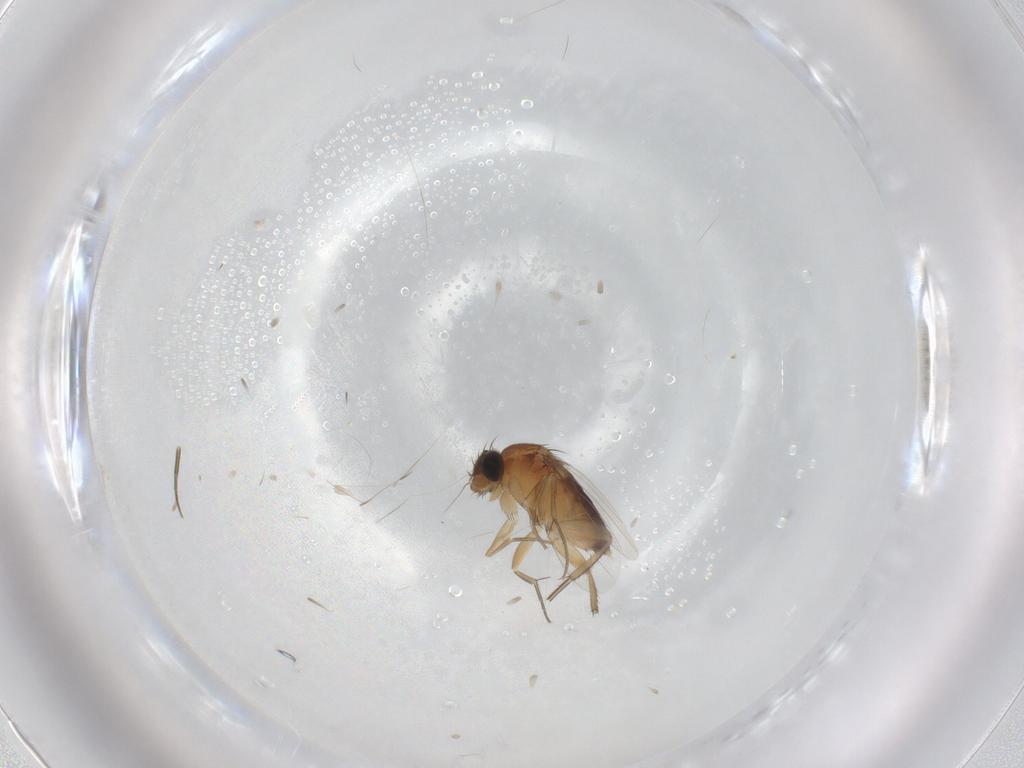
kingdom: Animalia
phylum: Arthropoda
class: Insecta
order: Diptera
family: Phoridae
